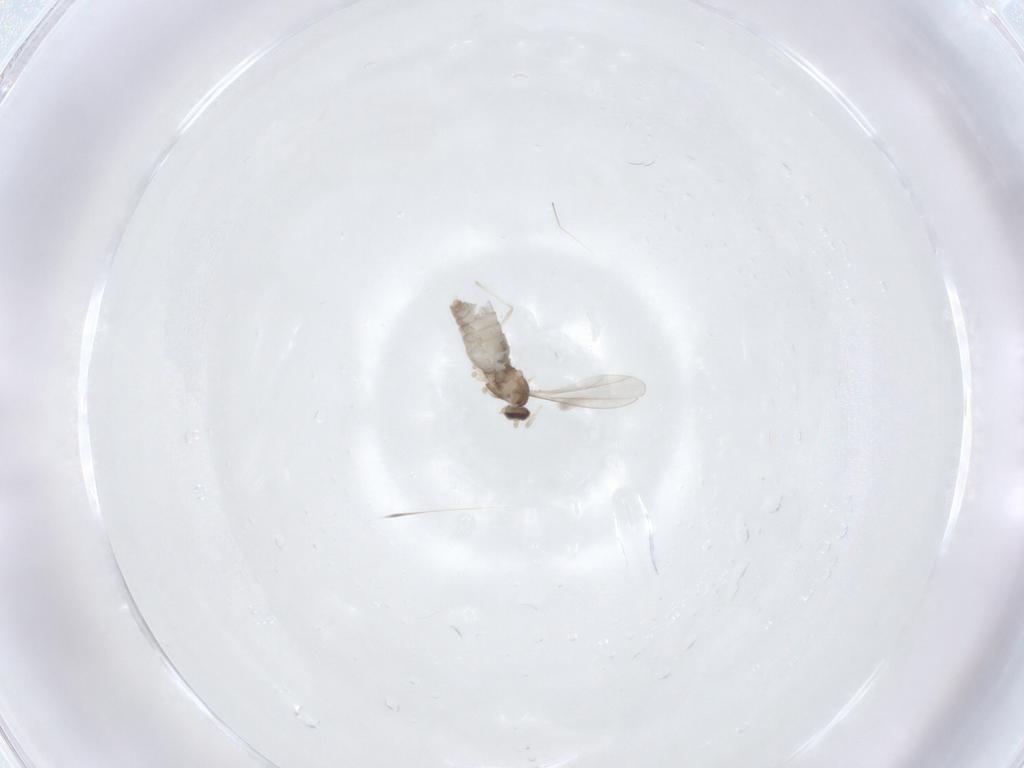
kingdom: Animalia
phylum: Arthropoda
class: Insecta
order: Diptera
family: Cecidomyiidae
